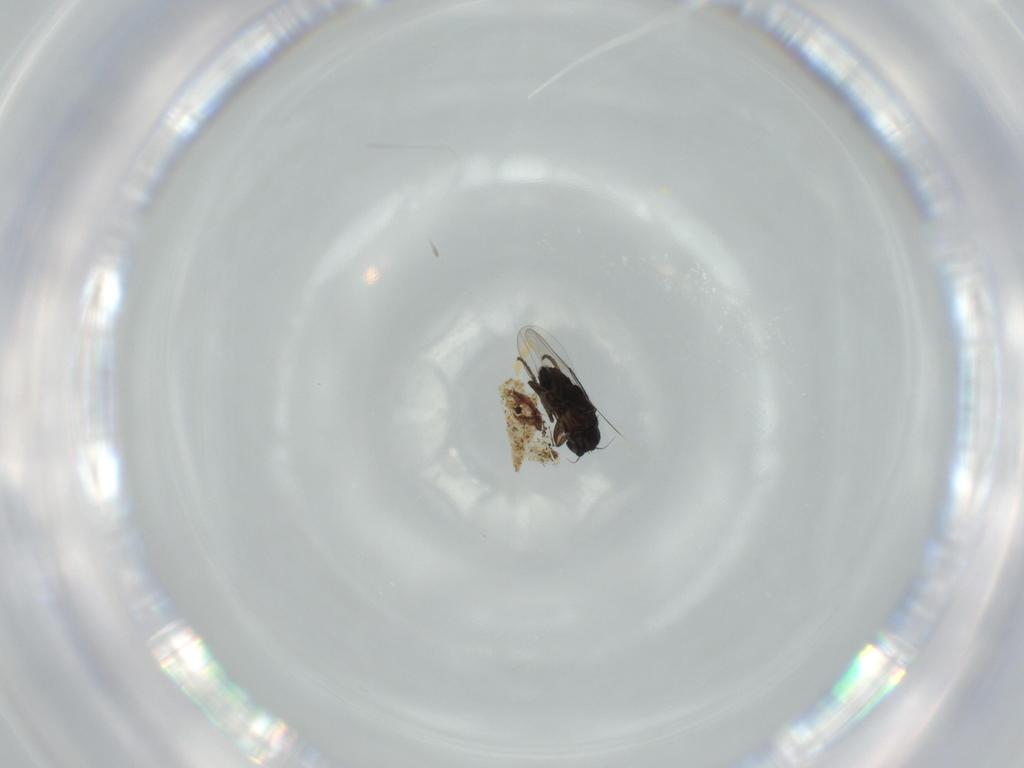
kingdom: Animalia
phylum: Arthropoda
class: Insecta
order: Diptera
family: Phoridae
